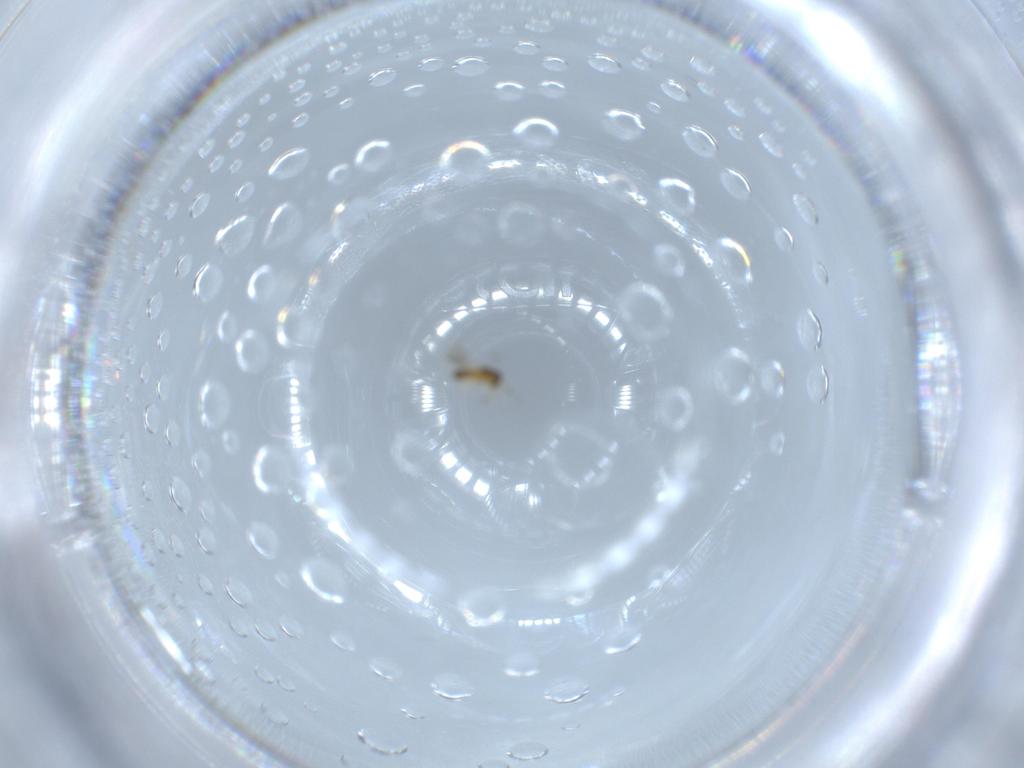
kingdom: Animalia
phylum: Arthropoda
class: Insecta
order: Hymenoptera
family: Platygastridae
